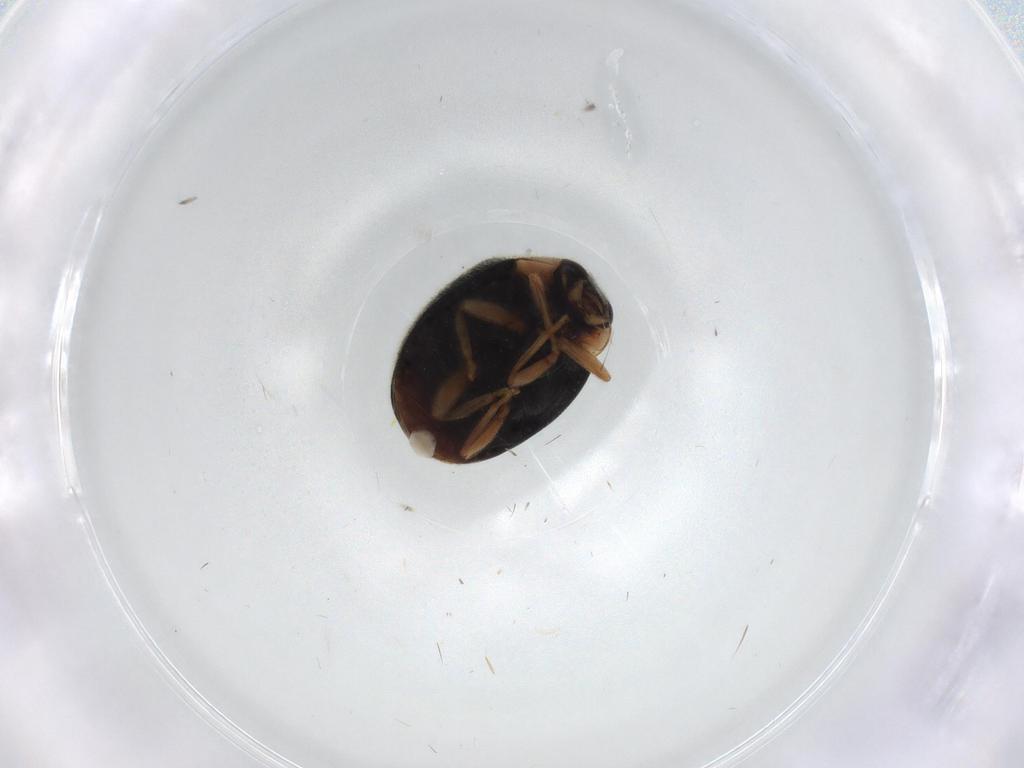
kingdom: Animalia
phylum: Arthropoda
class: Insecta
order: Coleoptera
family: Coccinellidae
